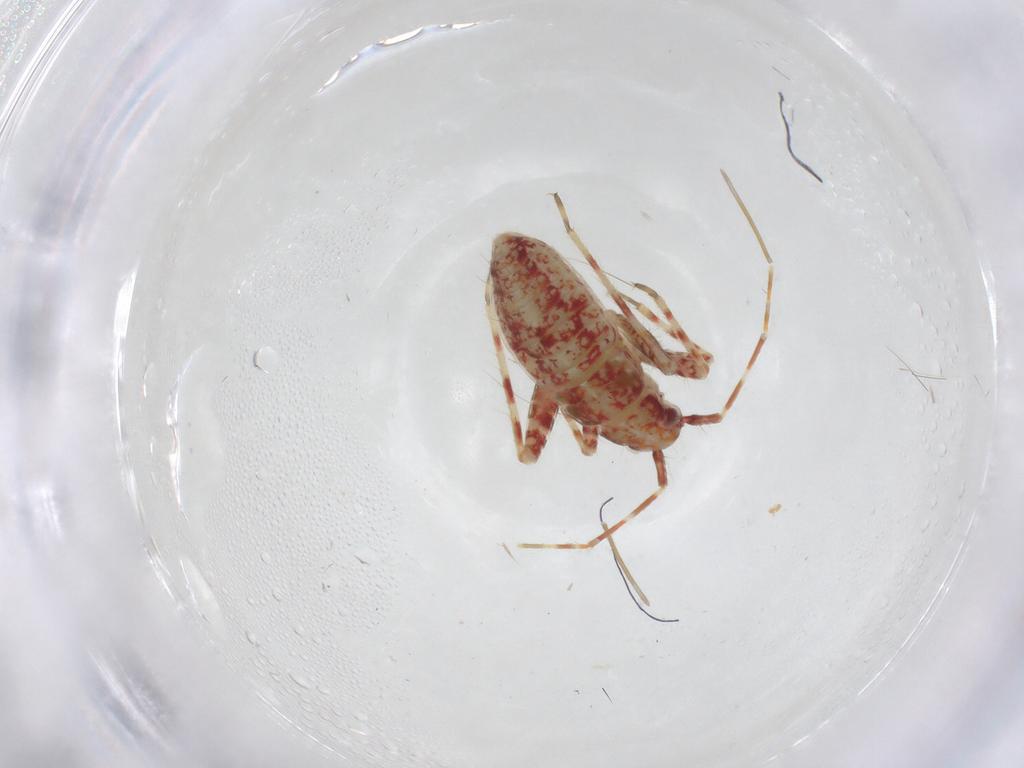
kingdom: Animalia
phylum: Arthropoda
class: Insecta
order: Hemiptera
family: Miridae
